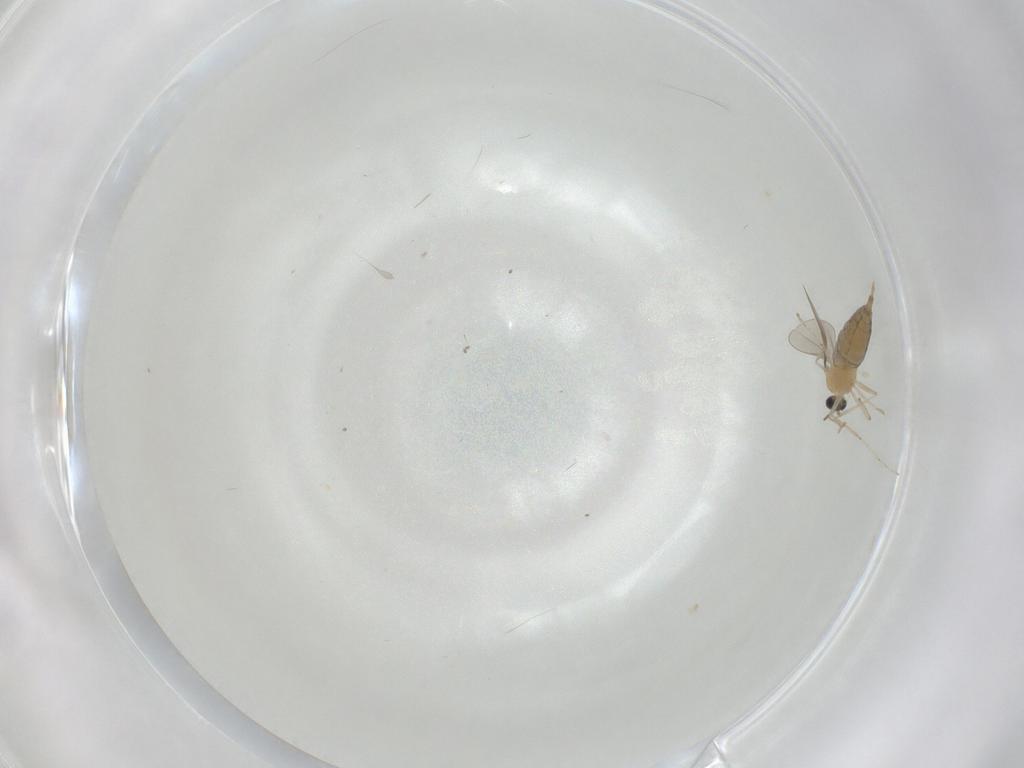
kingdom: Animalia
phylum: Arthropoda
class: Insecta
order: Diptera
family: Cecidomyiidae
